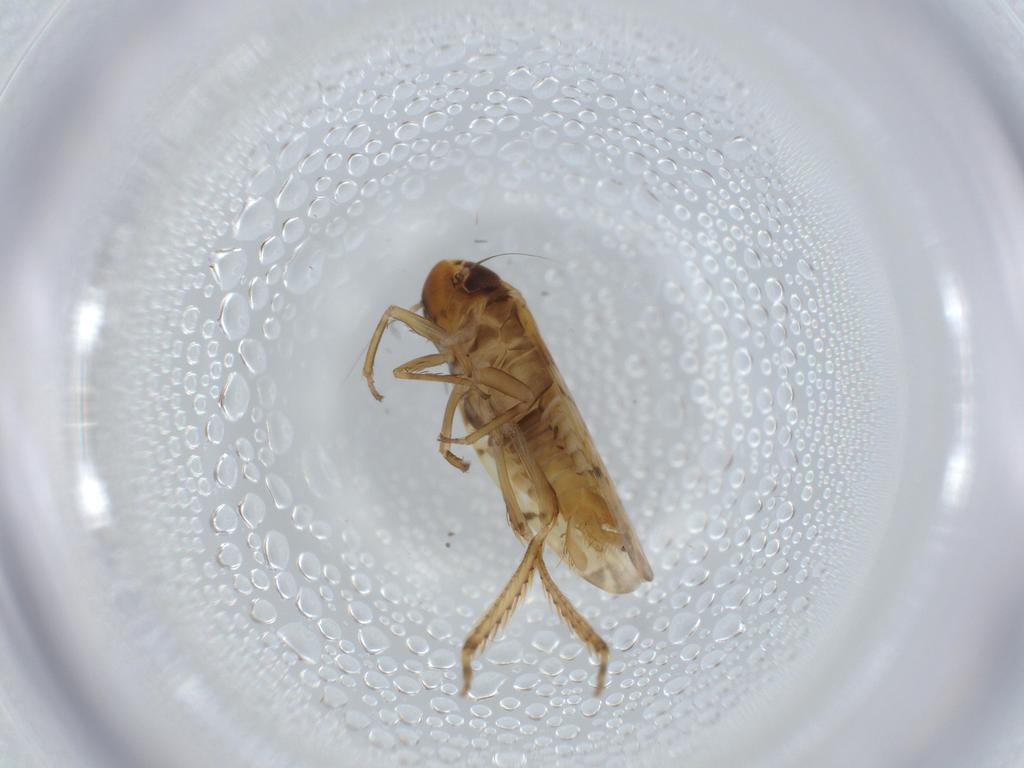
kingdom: Animalia
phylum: Arthropoda
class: Insecta
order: Hemiptera
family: Cicadellidae
